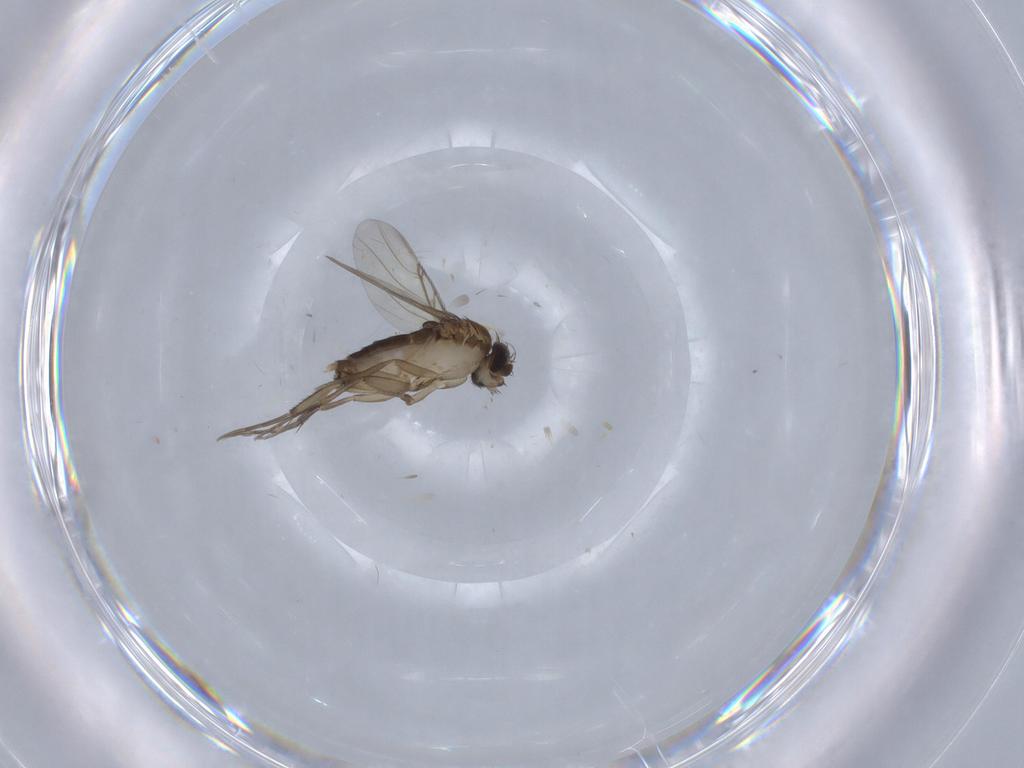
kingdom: Animalia
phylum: Arthropoda
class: Insecta
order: Diptera
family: Phoridae
